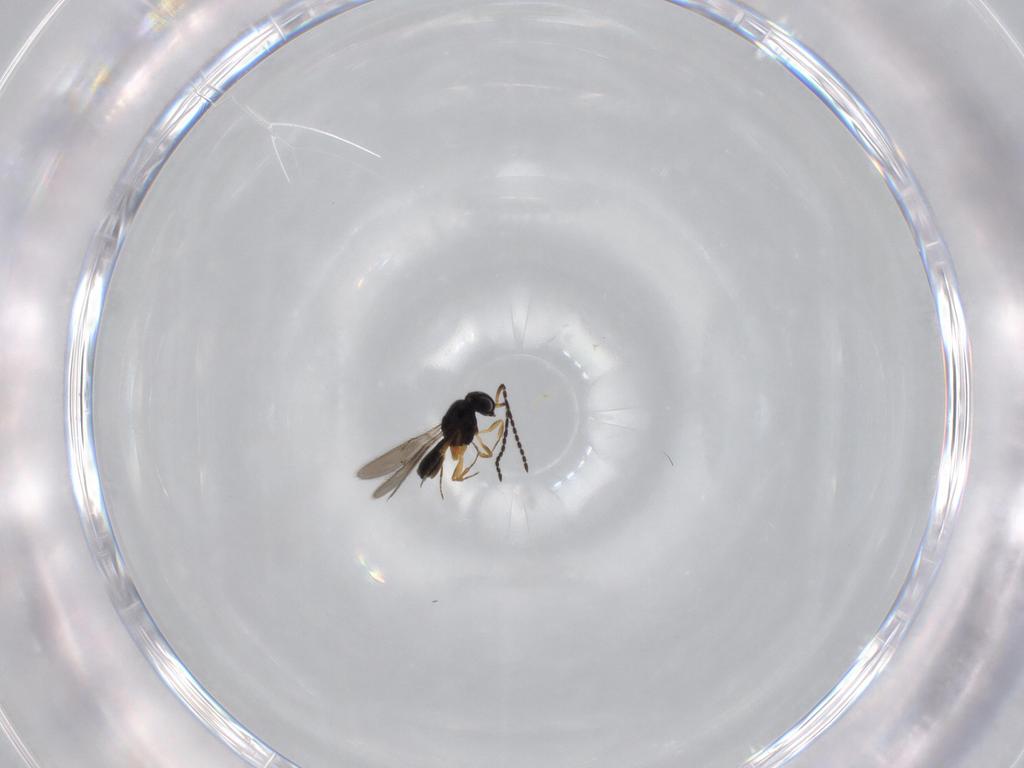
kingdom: Animalia
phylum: Arthropoda
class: Insecta
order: Hymenoptera
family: Scelionidae
